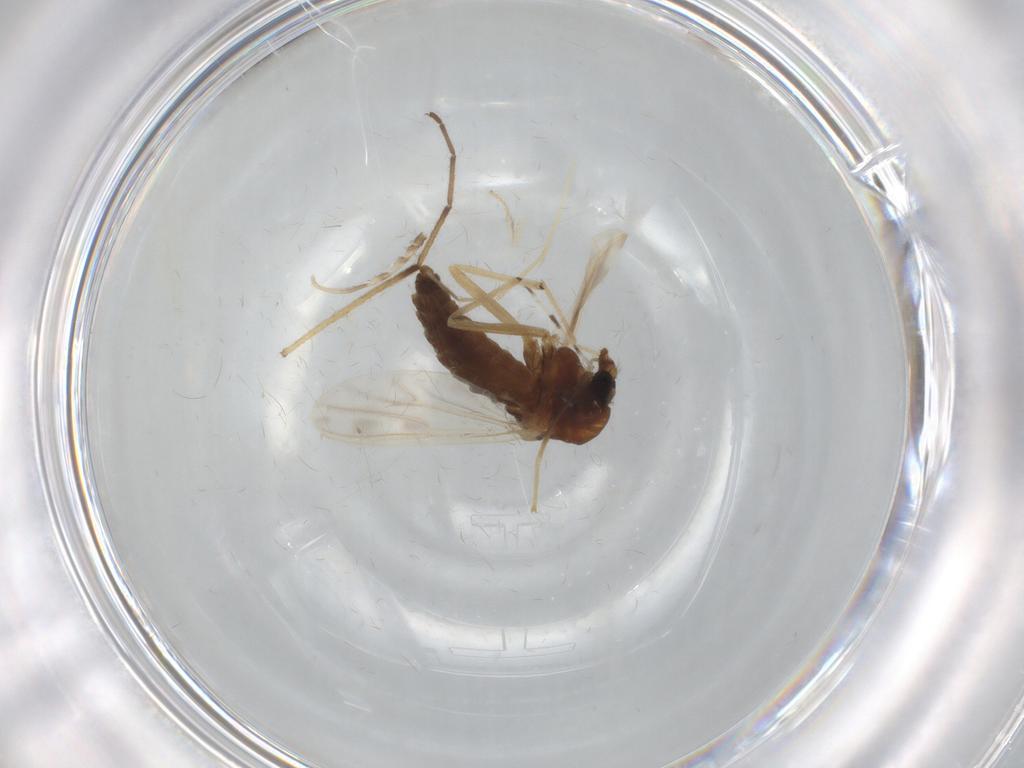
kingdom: Animalia
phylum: Arthropoda
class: Insecta
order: Diptera
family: Chironomidae
